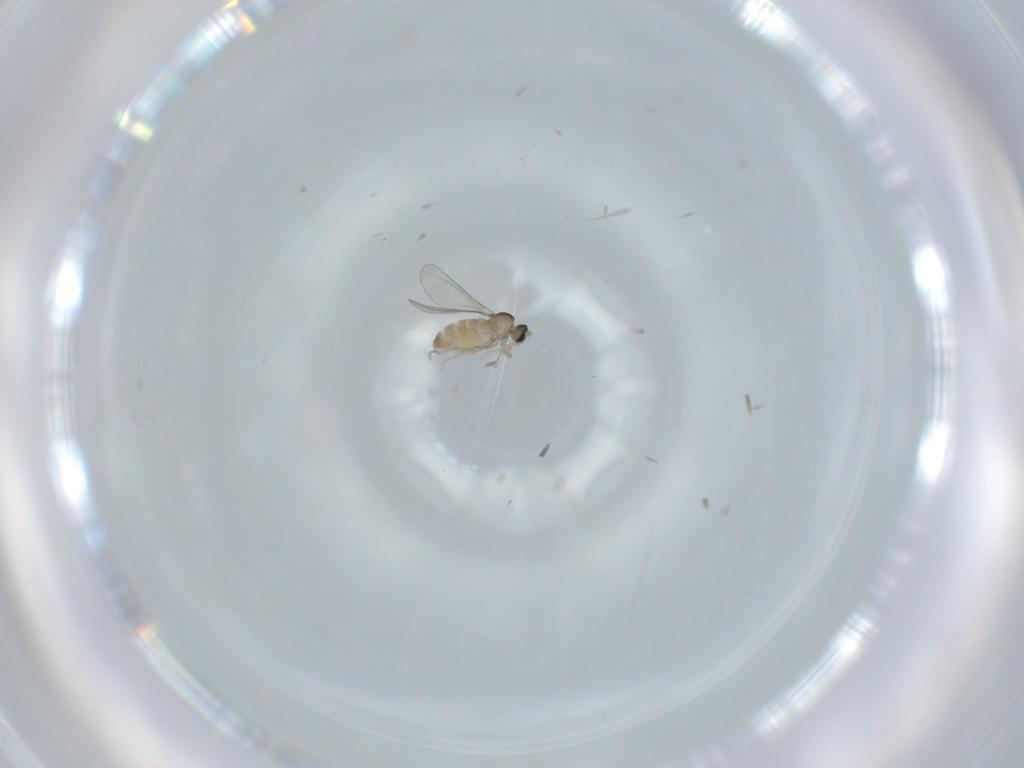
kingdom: Animalia
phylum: Arthropoda
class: Insecta
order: Diptera
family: Cecidomyiidae
